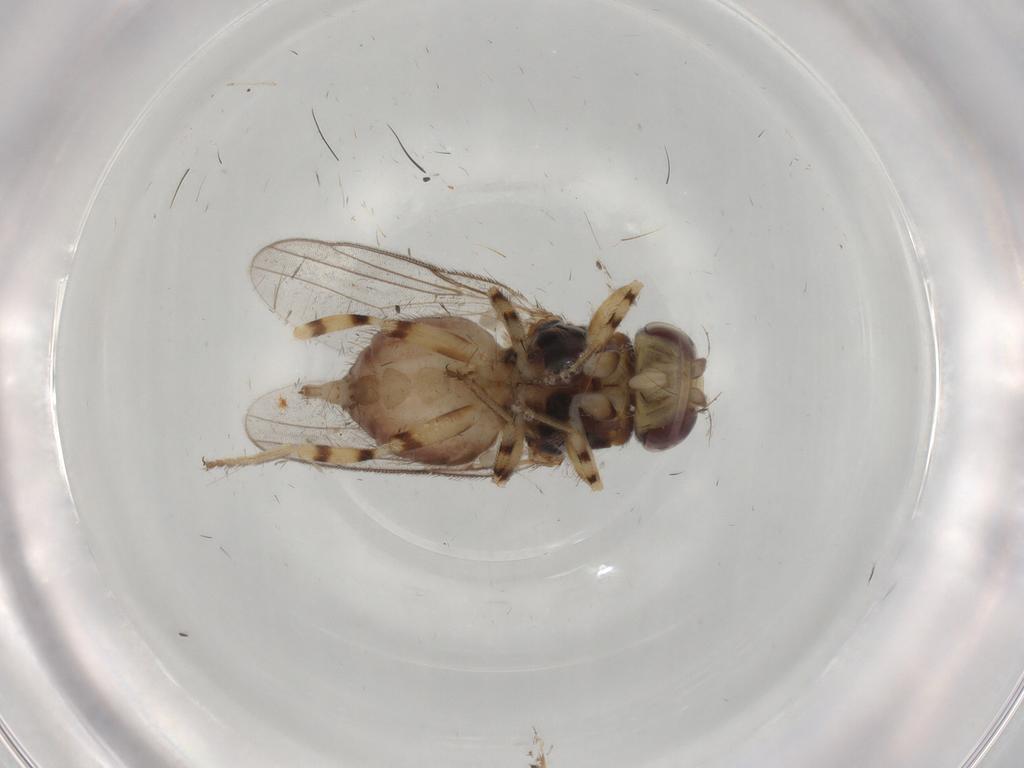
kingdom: Animalia
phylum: Arthropoda
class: Insecta
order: Diptera
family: Chloropidae
